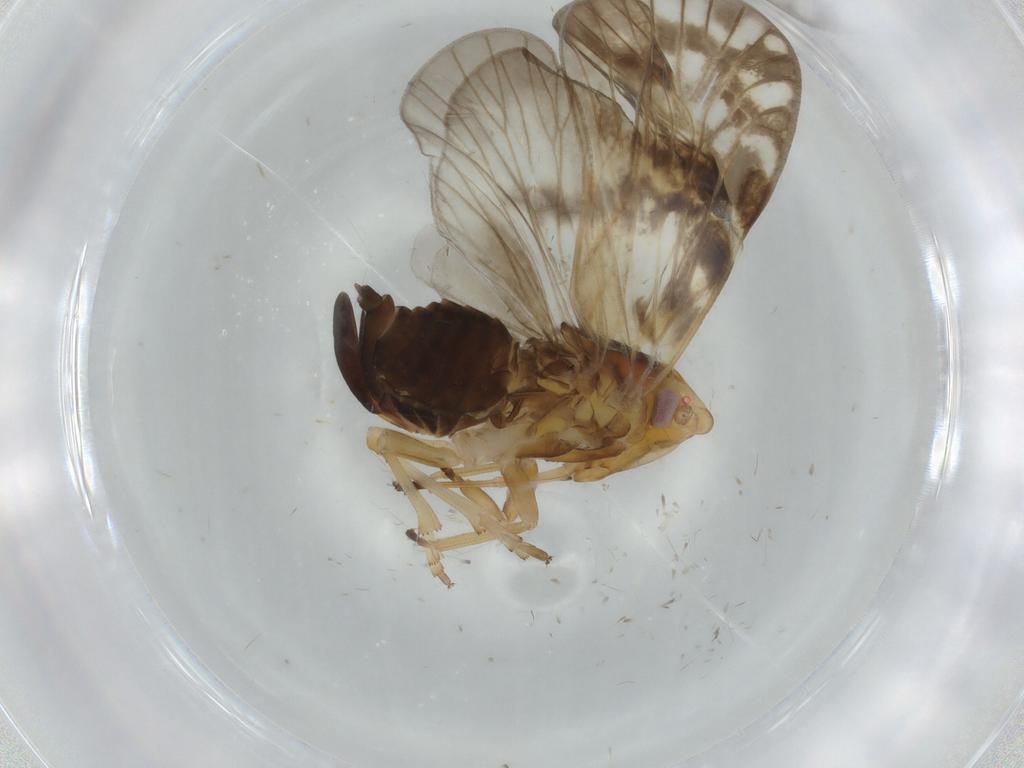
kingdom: Animalia
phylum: Arthropoda
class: Insecta
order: Hemiptera
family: Cixiidae
